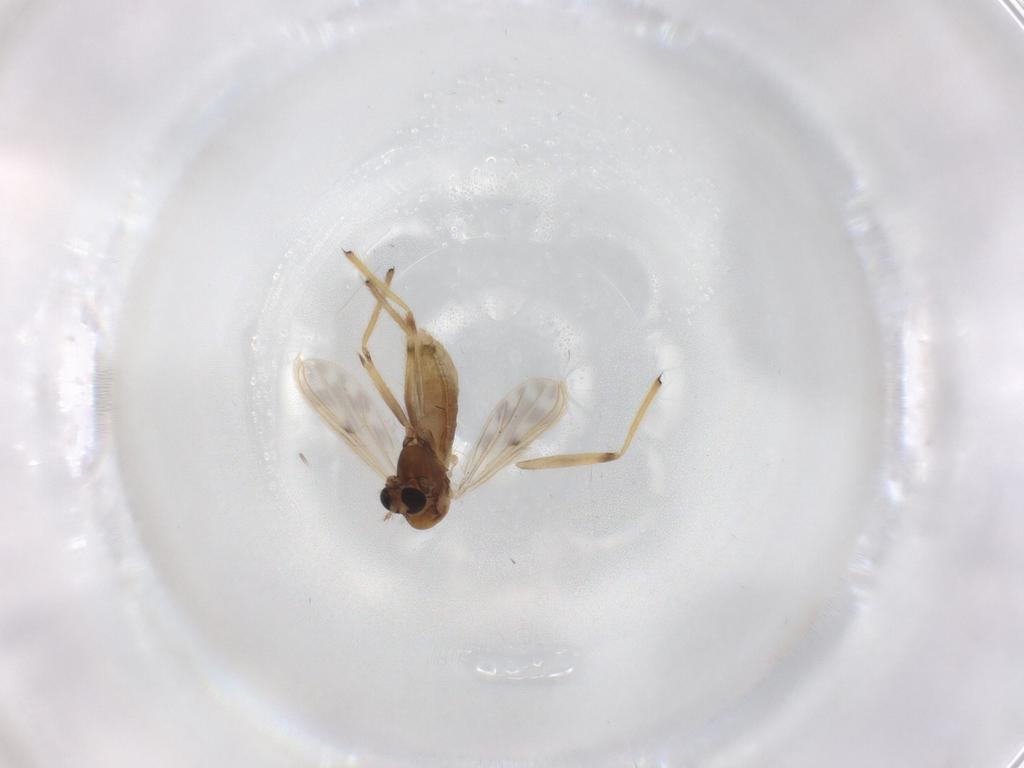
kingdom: Animalia
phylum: Arthropoda
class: Insecta
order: Diptera
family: Chironomidae
